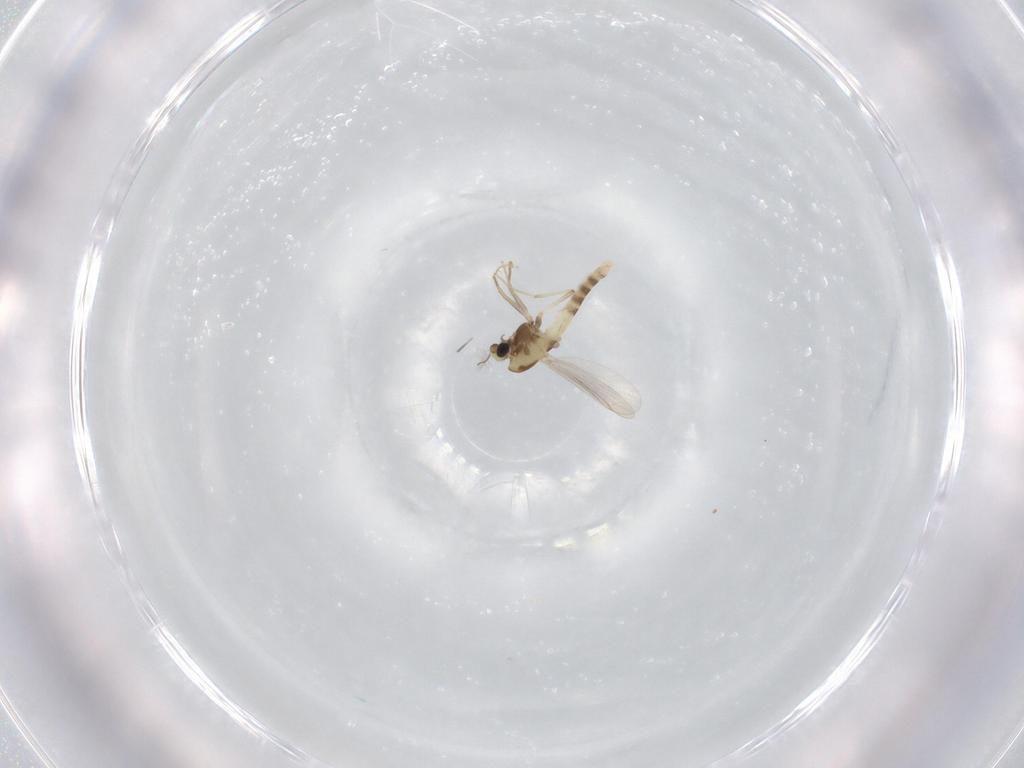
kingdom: Animalia
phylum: Arthropoda
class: Insecta
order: Diptera
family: Chironomidae
